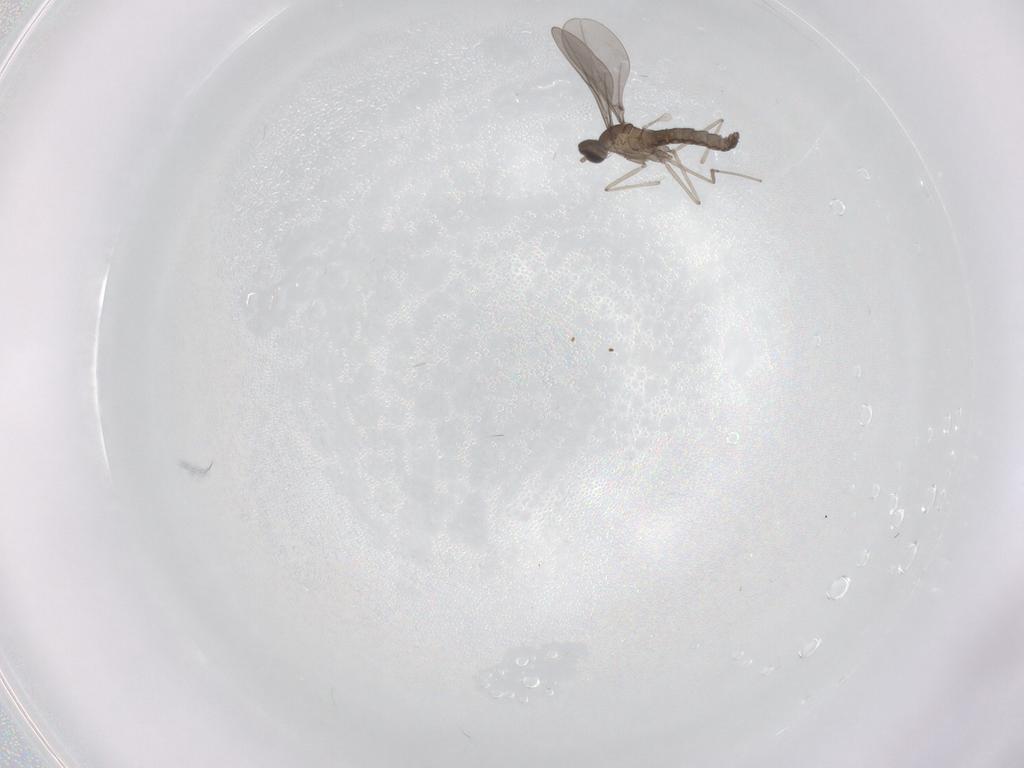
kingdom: Animalia
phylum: Arthropoda
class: Insecta
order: Diptera
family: Cecidomyiidae
